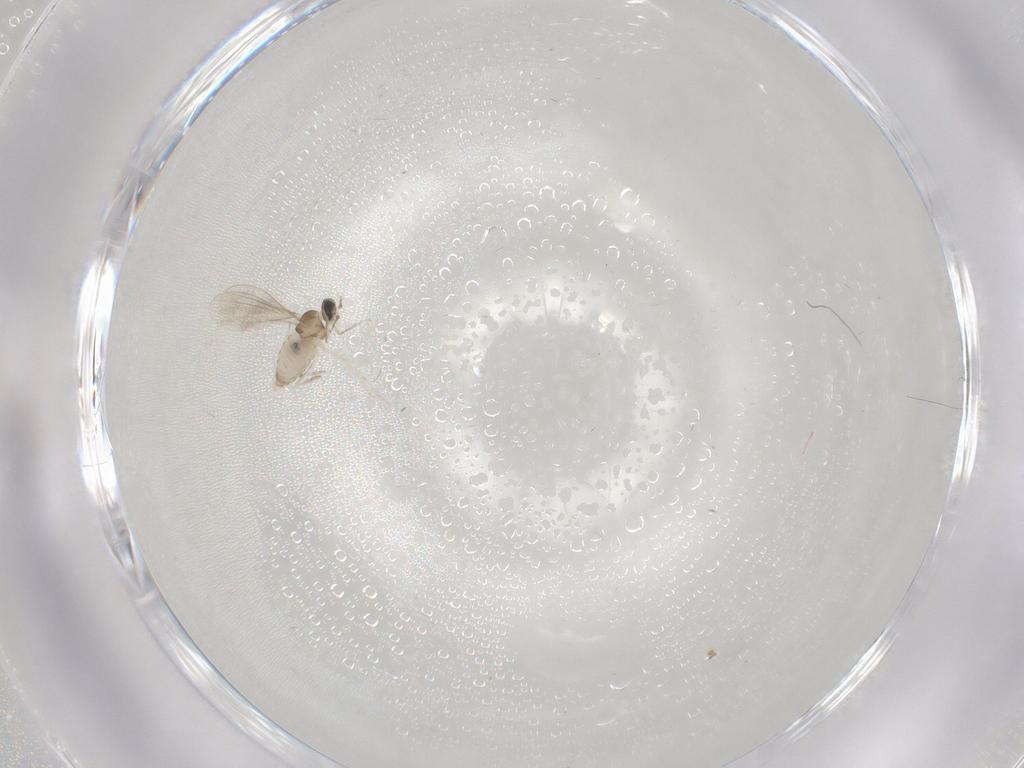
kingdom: Animalia
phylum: Arthropoda
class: Insecta
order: Diptera
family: Cecidomyiidae
